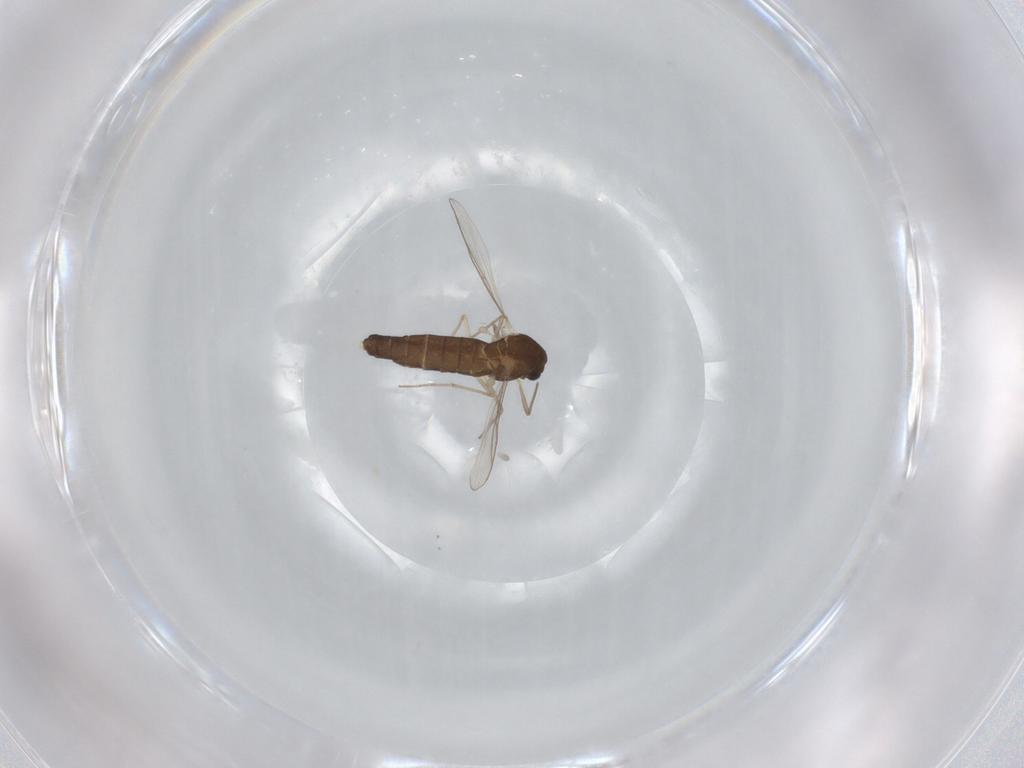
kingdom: Animalia
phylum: Arthropoda
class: Insecta
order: Diptera
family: Chironomidae
